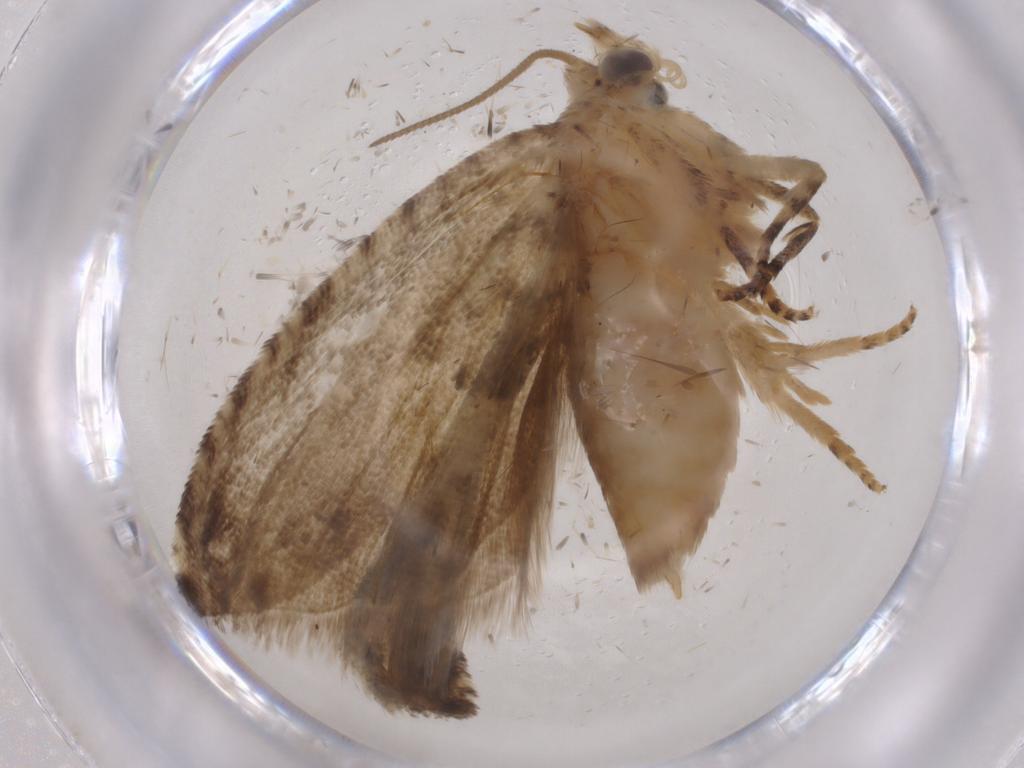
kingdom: Animalia
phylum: Arthropoda
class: Insecta
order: Lepidoptera
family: Tortricidae
